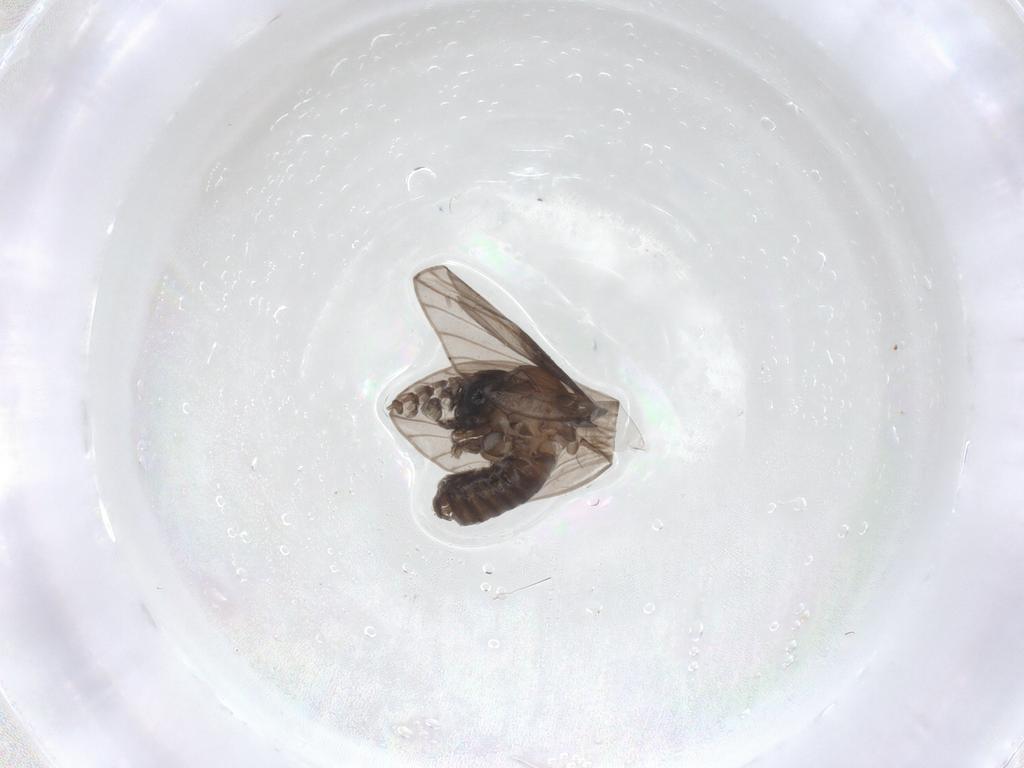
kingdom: Animalia
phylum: Arthropoda
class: Insecta
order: Diptera
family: Psychodidae
